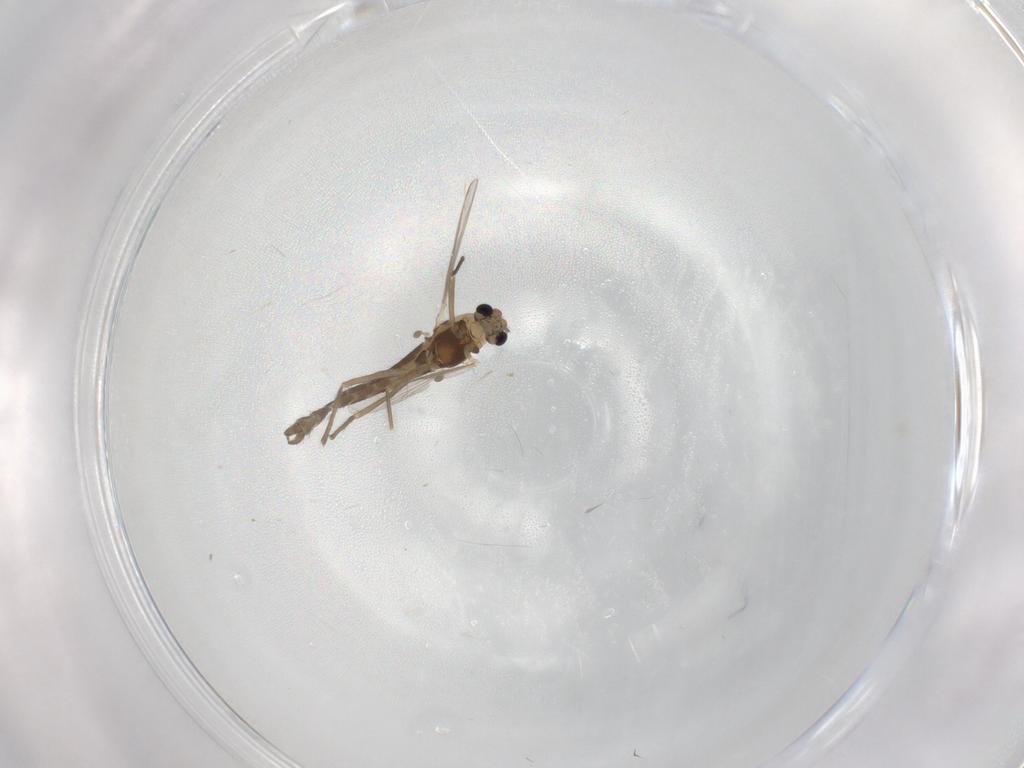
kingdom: Animalia
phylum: Arthropoda
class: Insecta
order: Diptera
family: Chironomidae
